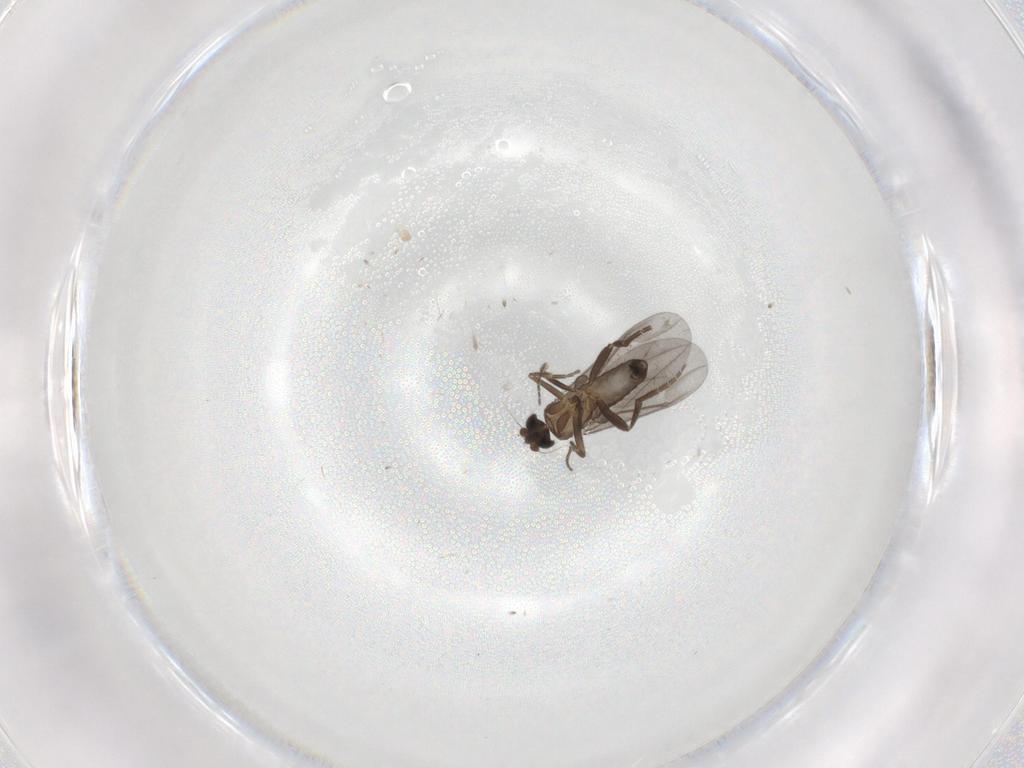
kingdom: Animalia
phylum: Arthropoda
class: Insecta
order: Diptera
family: Phoridae
